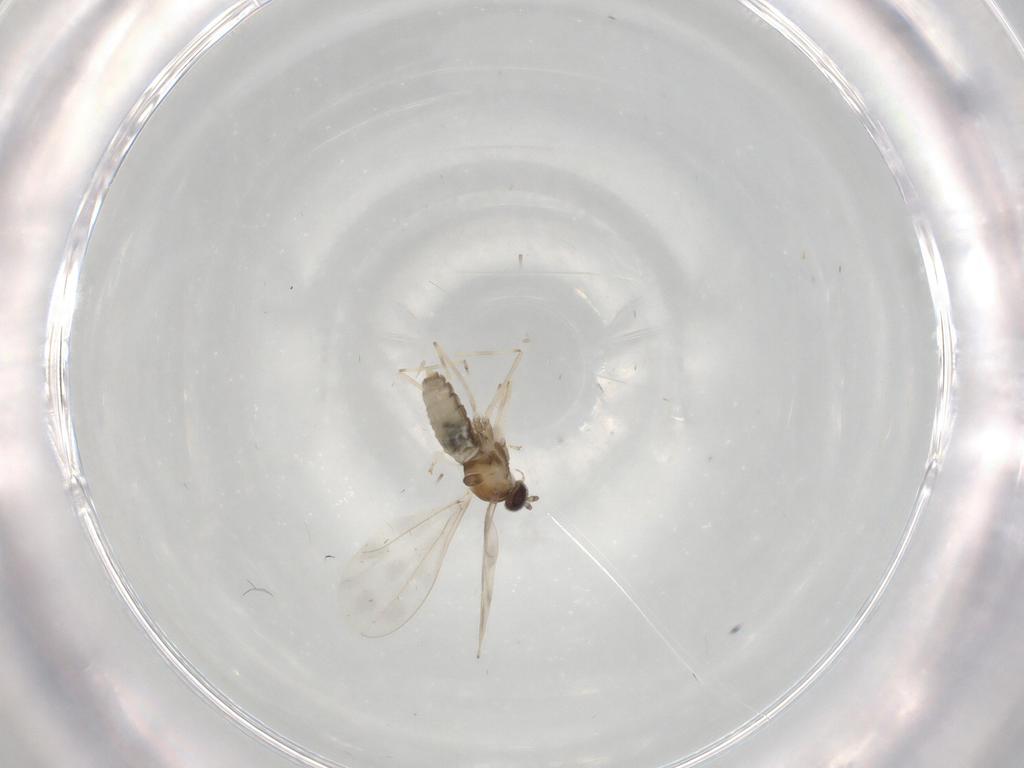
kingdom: Animalia
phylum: Arthropoda
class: Insecta
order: Diptera
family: Cecidomyiidae
